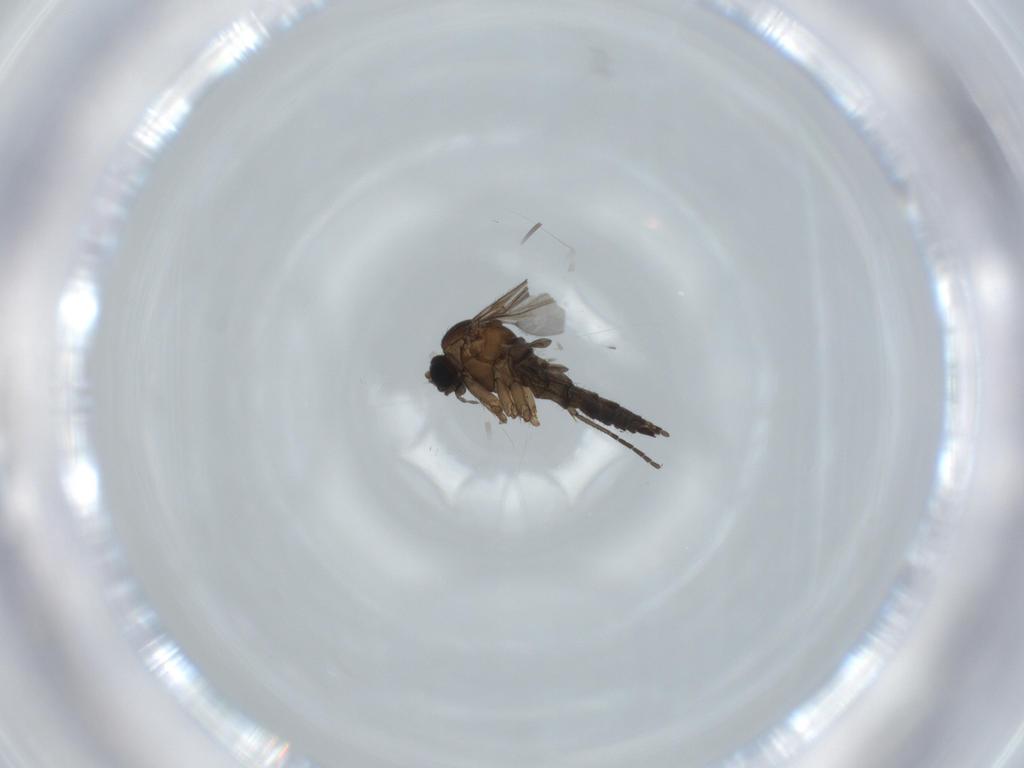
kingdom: Animalia
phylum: Arthropoda
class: Insecta
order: Diptera
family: Sciaridae
